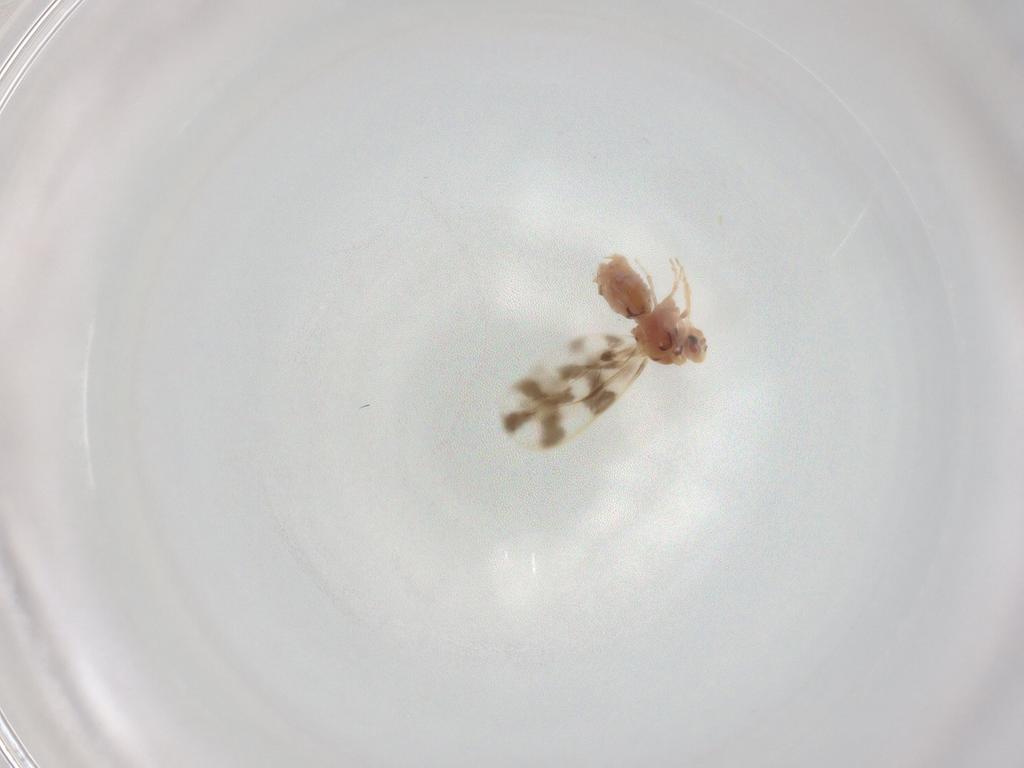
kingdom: Animalia
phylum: Arthropoda
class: Insecta
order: Hemiptera
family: Aleyrodidae
